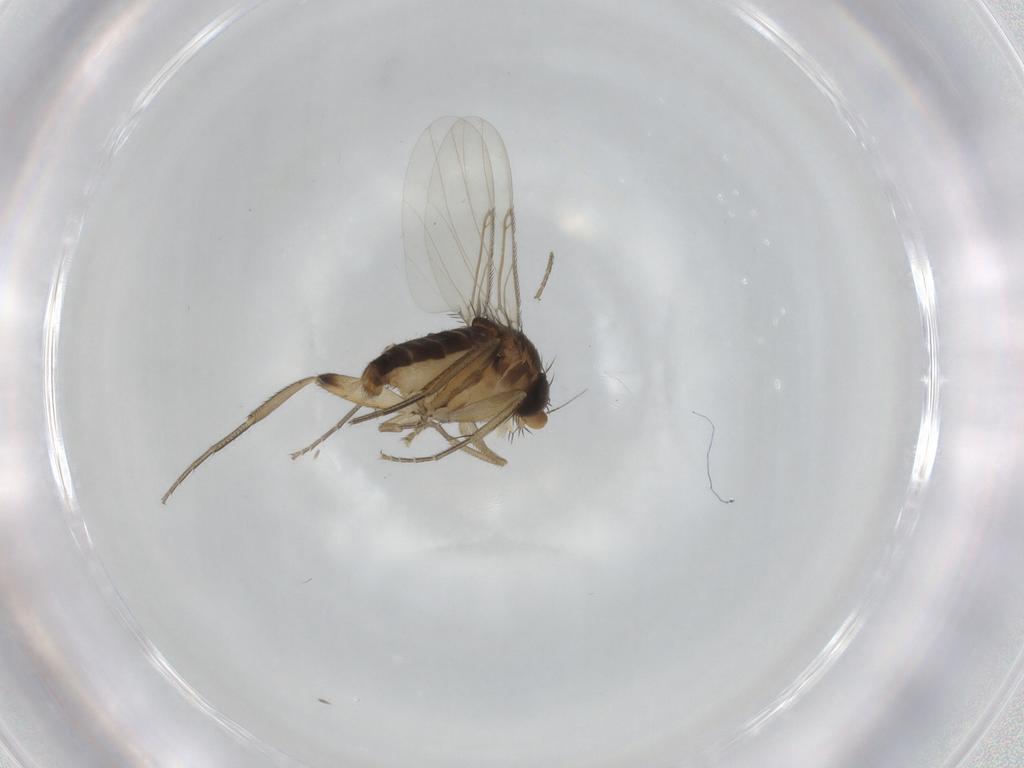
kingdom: Animalia
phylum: Arthropoda
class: Insecta
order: Diptera
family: Phoridae
